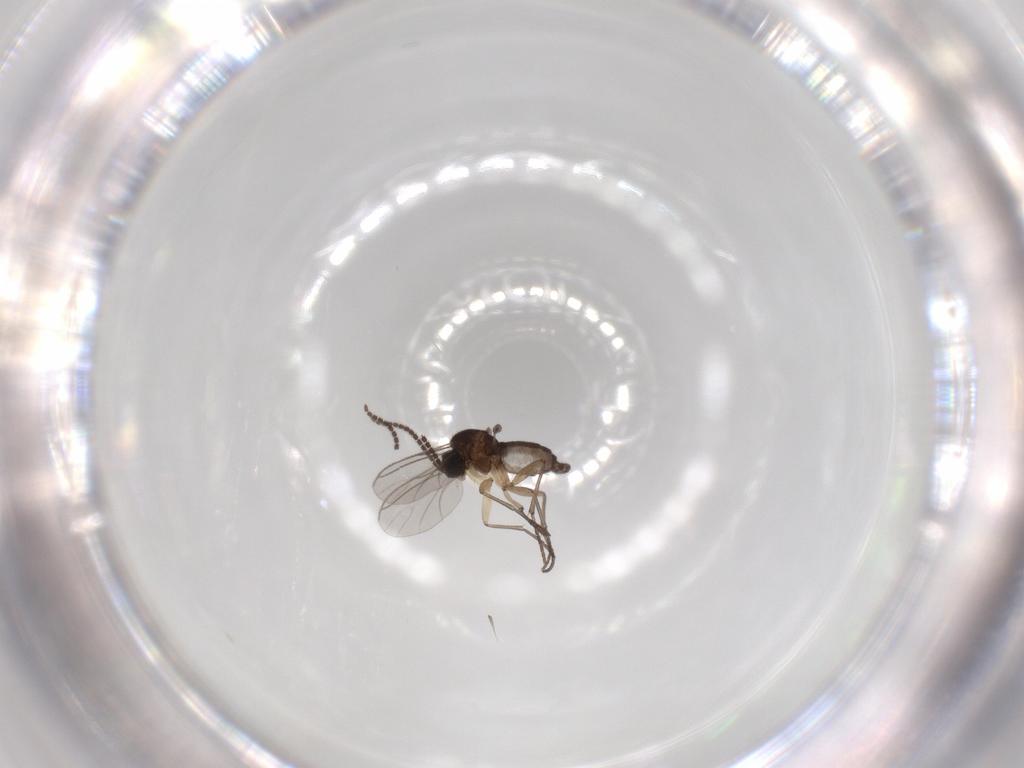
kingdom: Animalia
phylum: Arthropoda
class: Insecta
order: Diptera
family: Sciaridae
